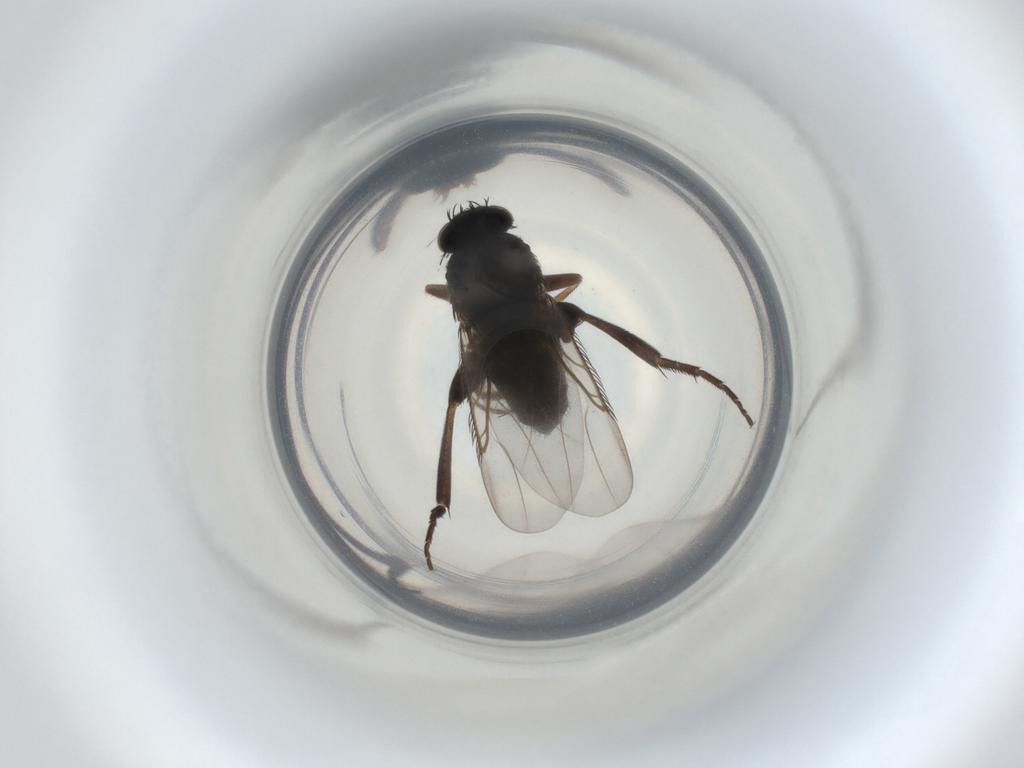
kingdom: Animalia
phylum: Arthropoda
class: Insecta
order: Diptera
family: Phoridae
